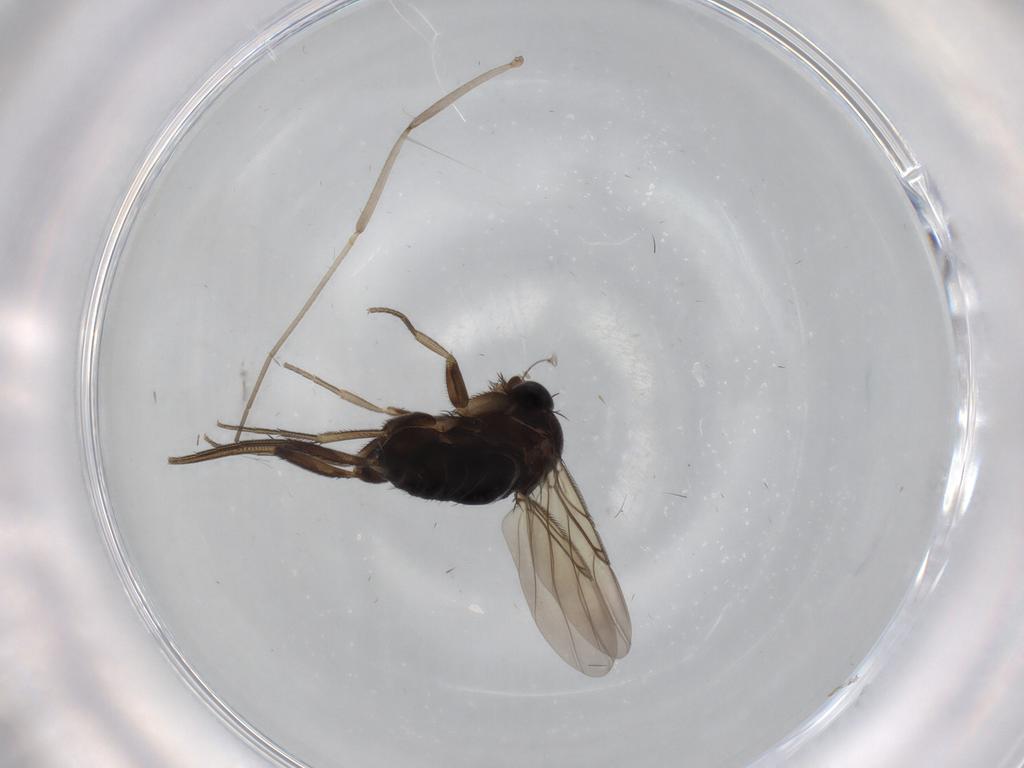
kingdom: Animalia
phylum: Arthropoda
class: Insecta
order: Diptera
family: Phoridae
